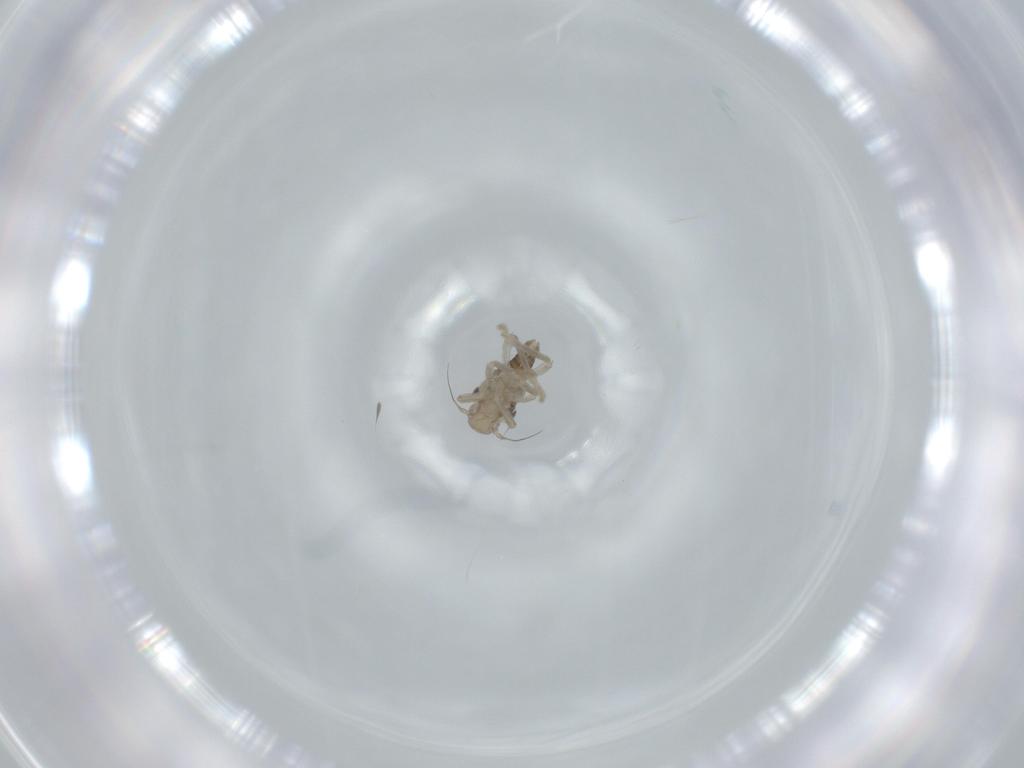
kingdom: Animalia
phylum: Arthropoda
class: Insecta
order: Hemiptera
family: Cicadellidae
